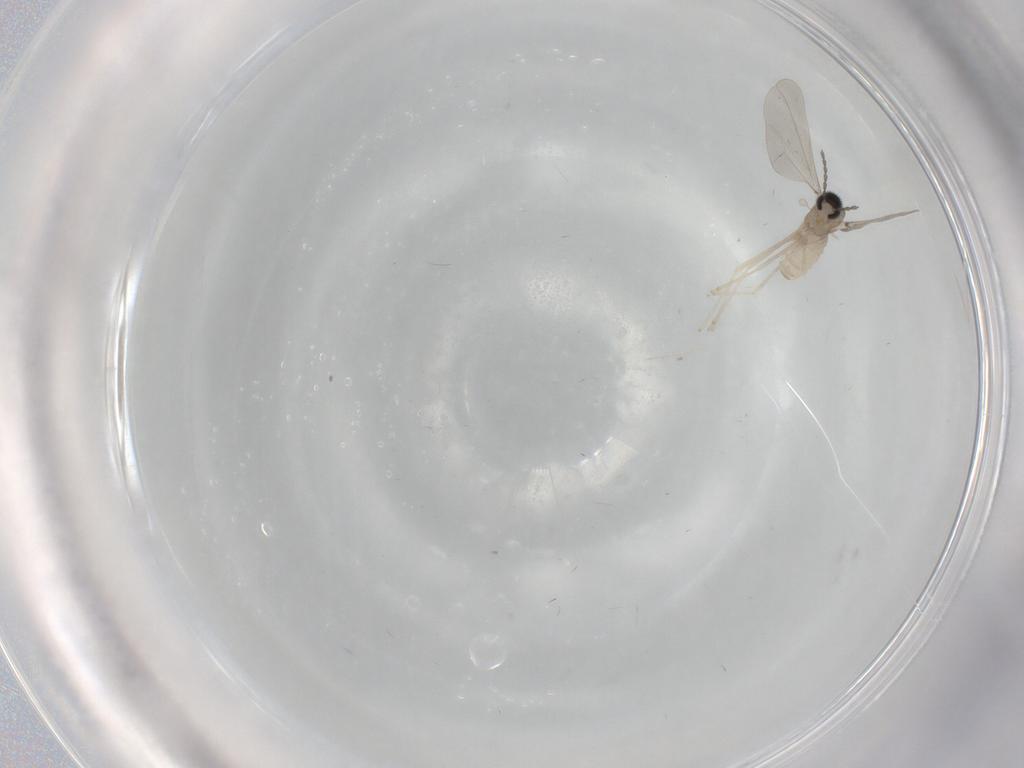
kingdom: Animalia
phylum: Arthropoda
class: Insecta
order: Diptera
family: Cecidomyiidae
